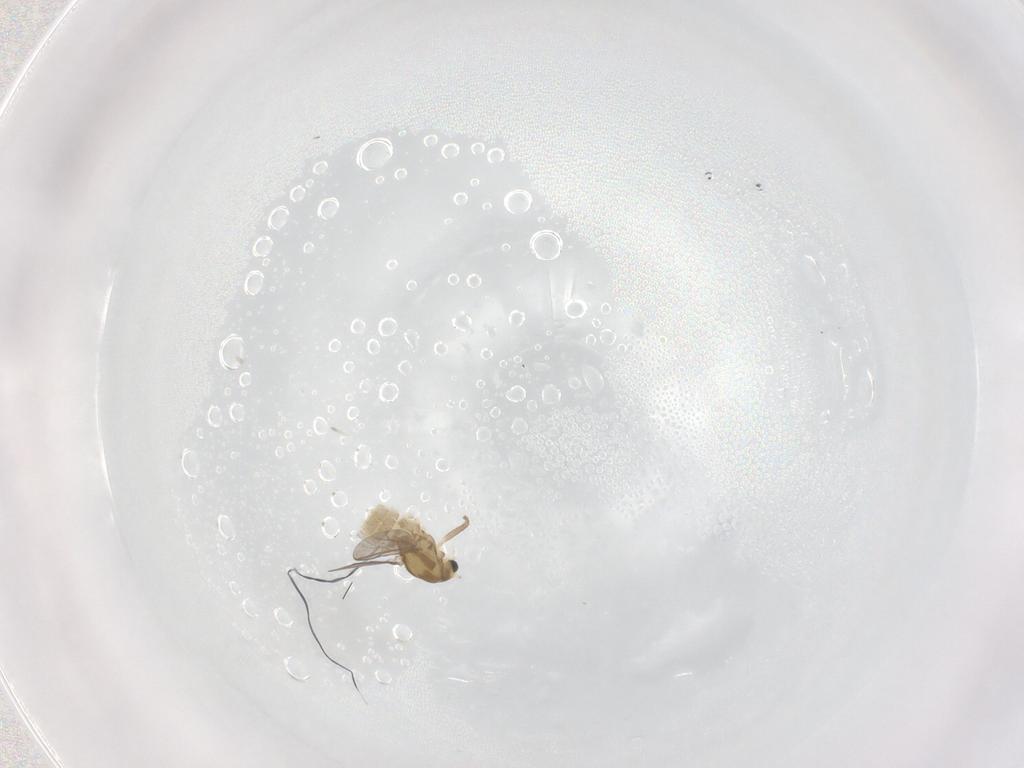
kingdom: Animalia
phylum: Arthropoda
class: Insecta
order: Diptera
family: Chironomidae
